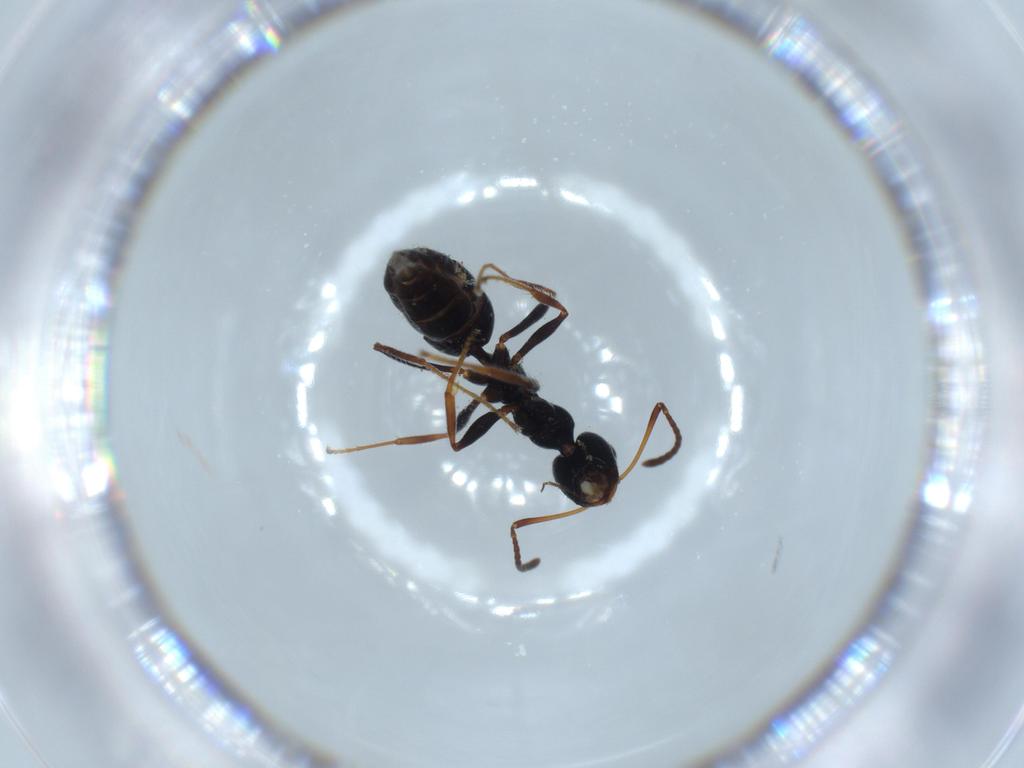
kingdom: Animalia
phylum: Arthropoda
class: Insecta
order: Hymenoptera
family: Formicidae
